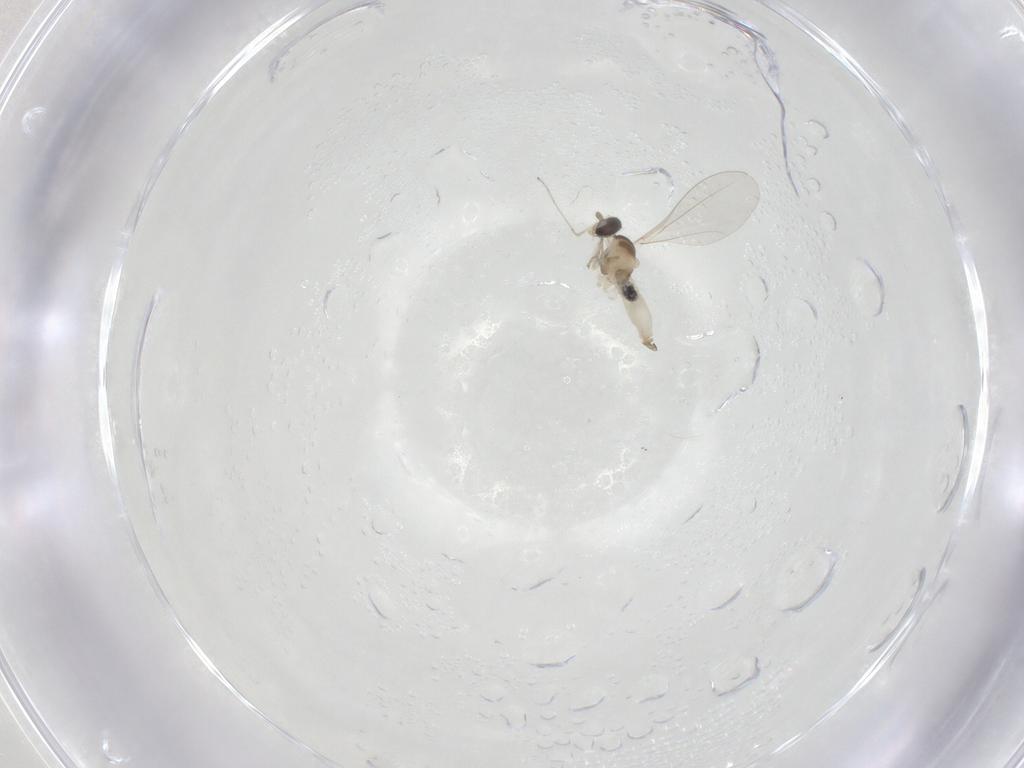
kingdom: Animalia
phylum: Arthropoda
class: Insecta
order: Diptera
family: Cecidomyiidae
